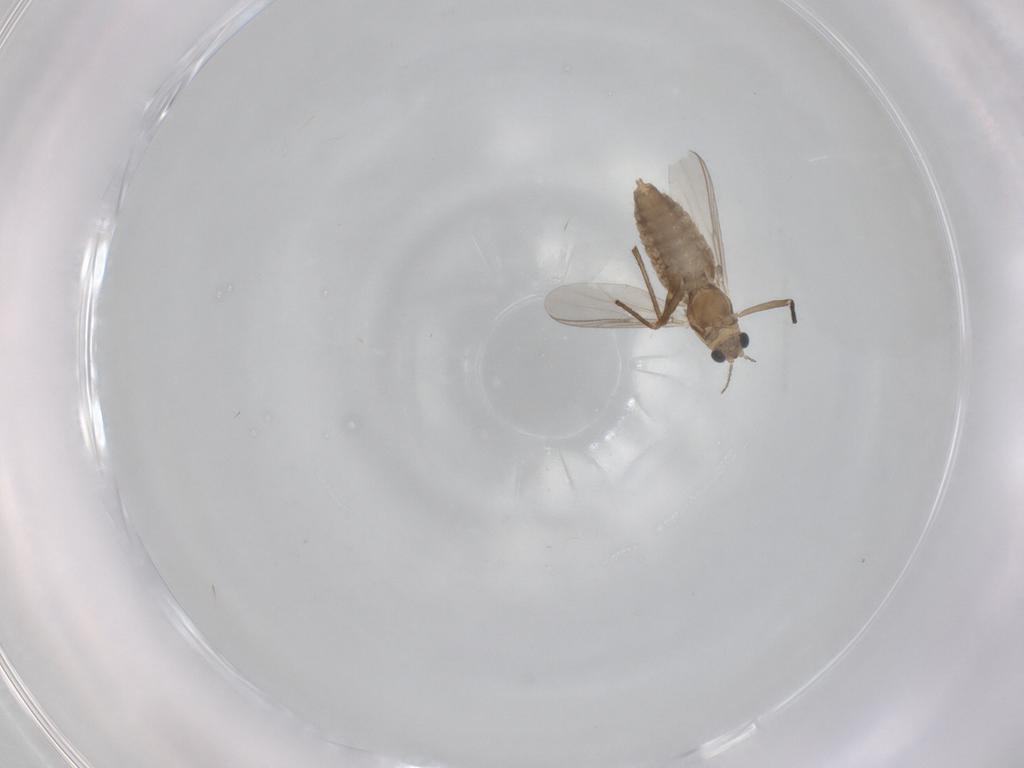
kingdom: Animalia
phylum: Arthropoda
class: Insecta
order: Diptera
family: Chironomidae
